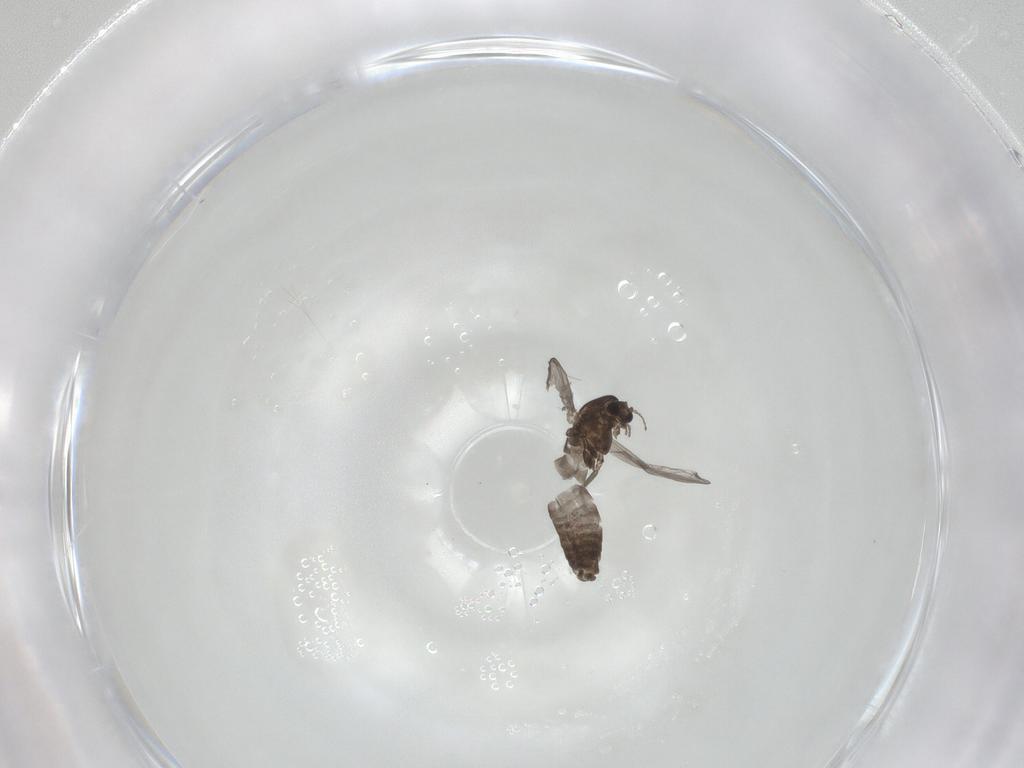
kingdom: Animalia
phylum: Arthropoda
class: Insecta
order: Diptera
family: Chironomidae
